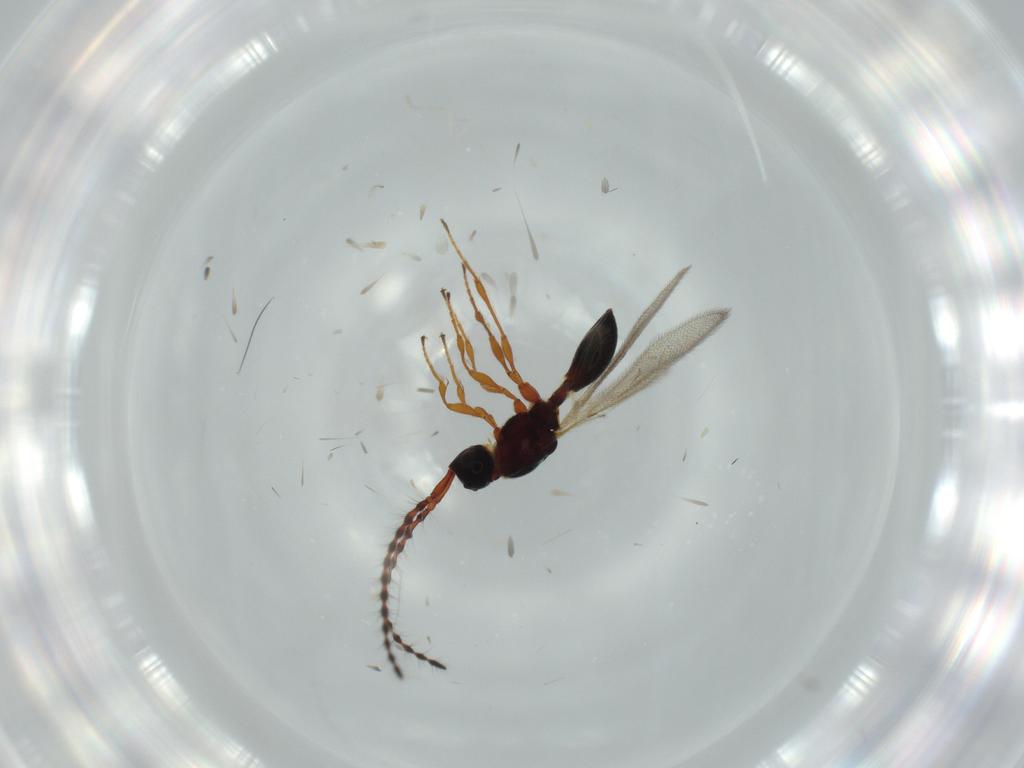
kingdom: Animalia
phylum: Arthropoda
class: Insecta
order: Hymenoptera
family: Diapriidae
